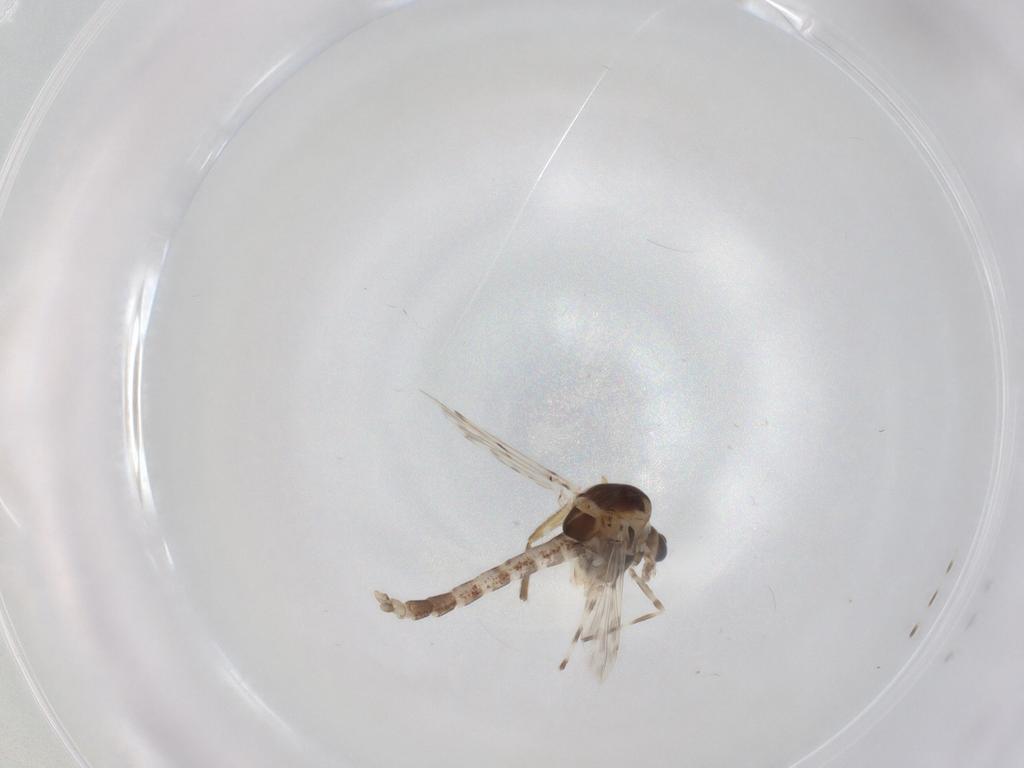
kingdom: Animalia
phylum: Arthropoda
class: Insecta
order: Diptera
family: Chironomidae
